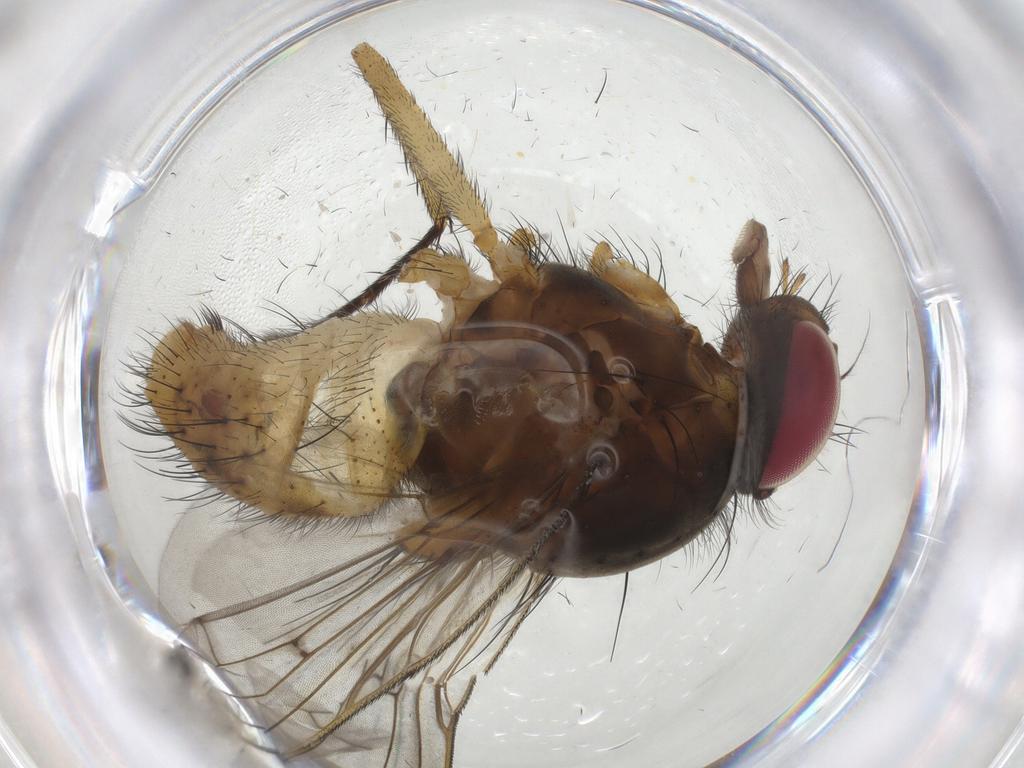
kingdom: Animalia
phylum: Arthropoda
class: Insecta
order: Diptera
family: Muscidae
